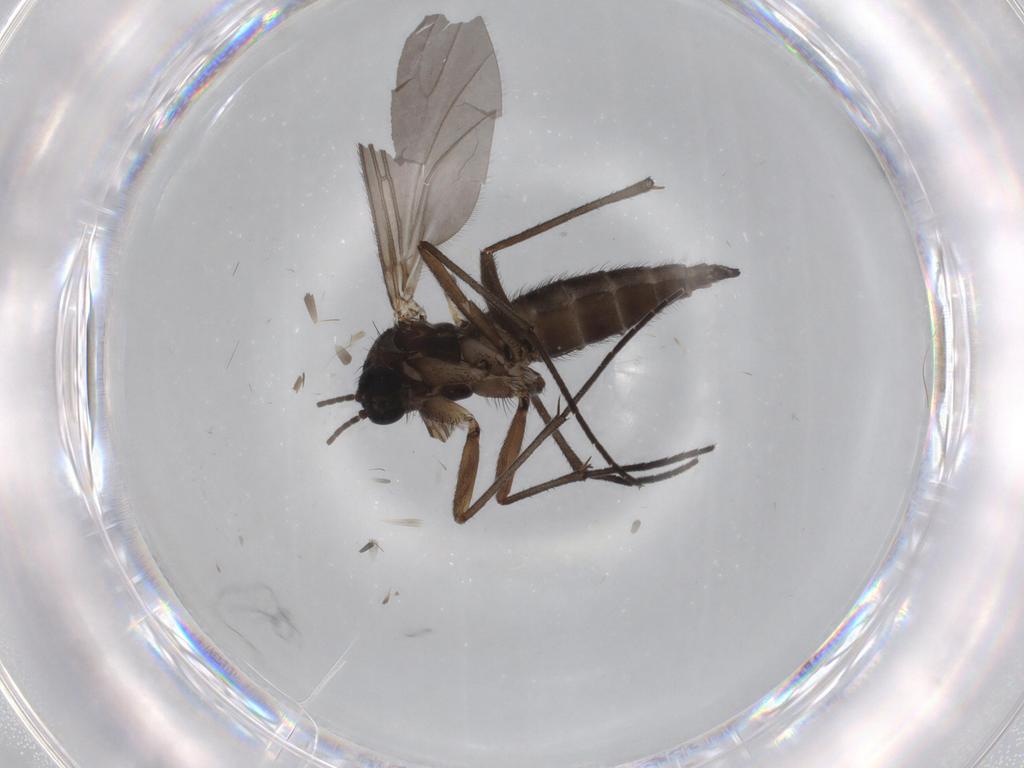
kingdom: Animalia
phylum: Arthropoda
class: Insecta
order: Diptera
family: Sciaridae
